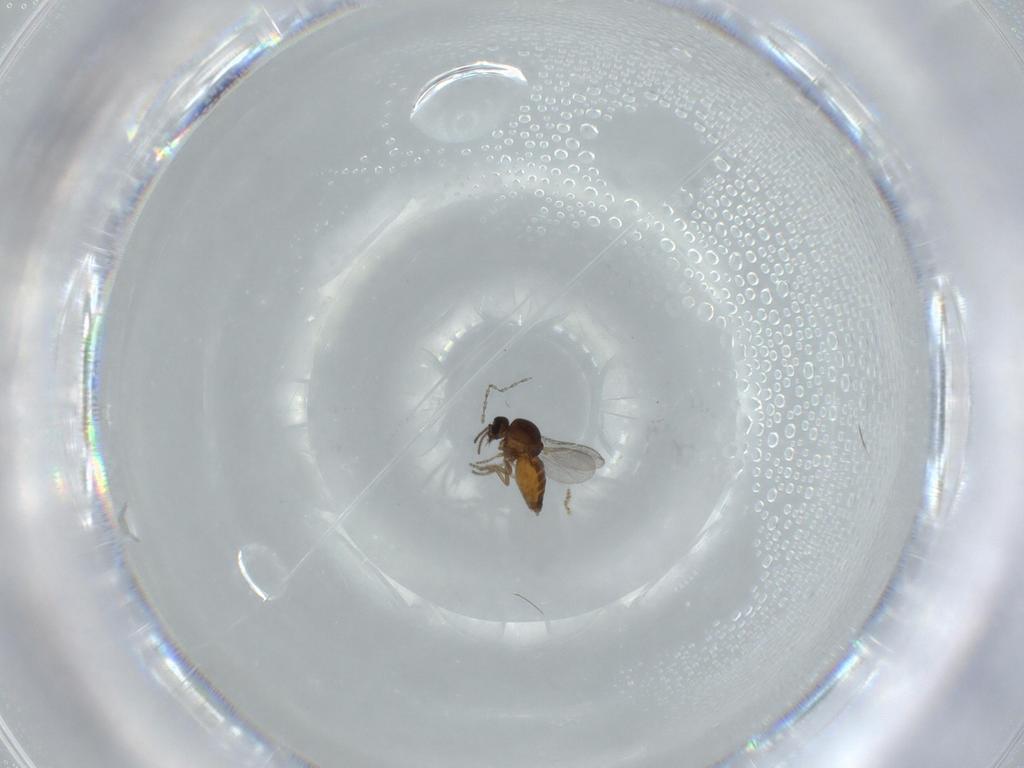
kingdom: Animalia
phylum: Arthropoda
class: Insecta
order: Diptera
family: Ceratopogonidae
